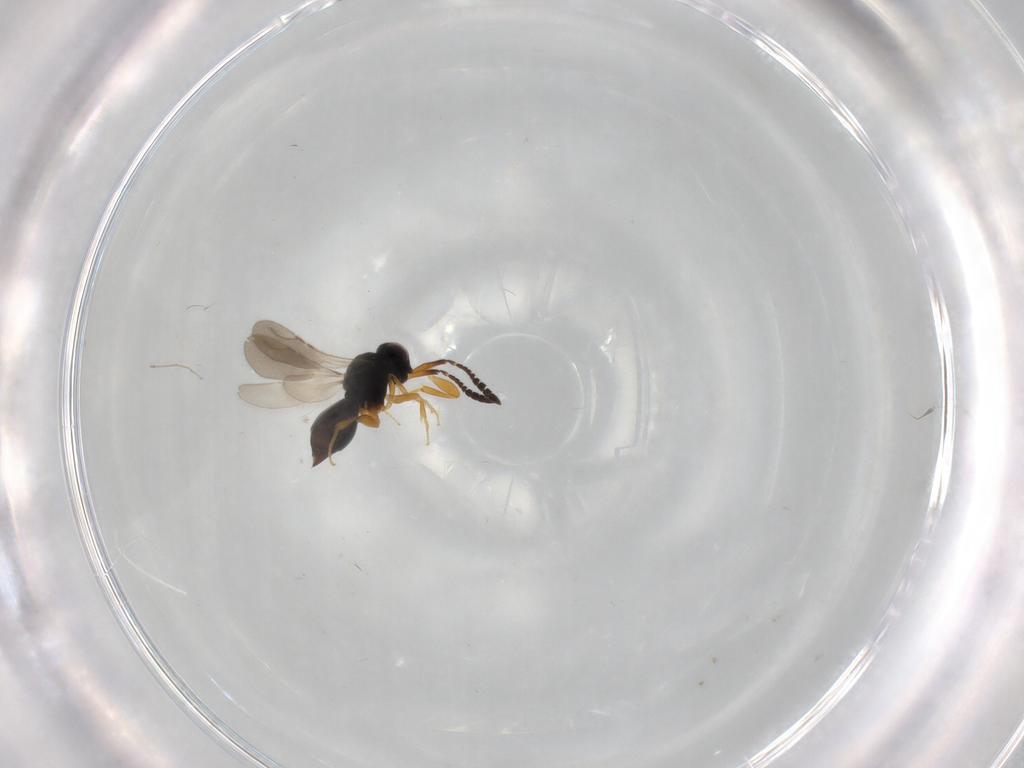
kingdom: Animalia
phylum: Arthropoda
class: Insecta
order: Hymenoptera
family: Ceraphronidae
